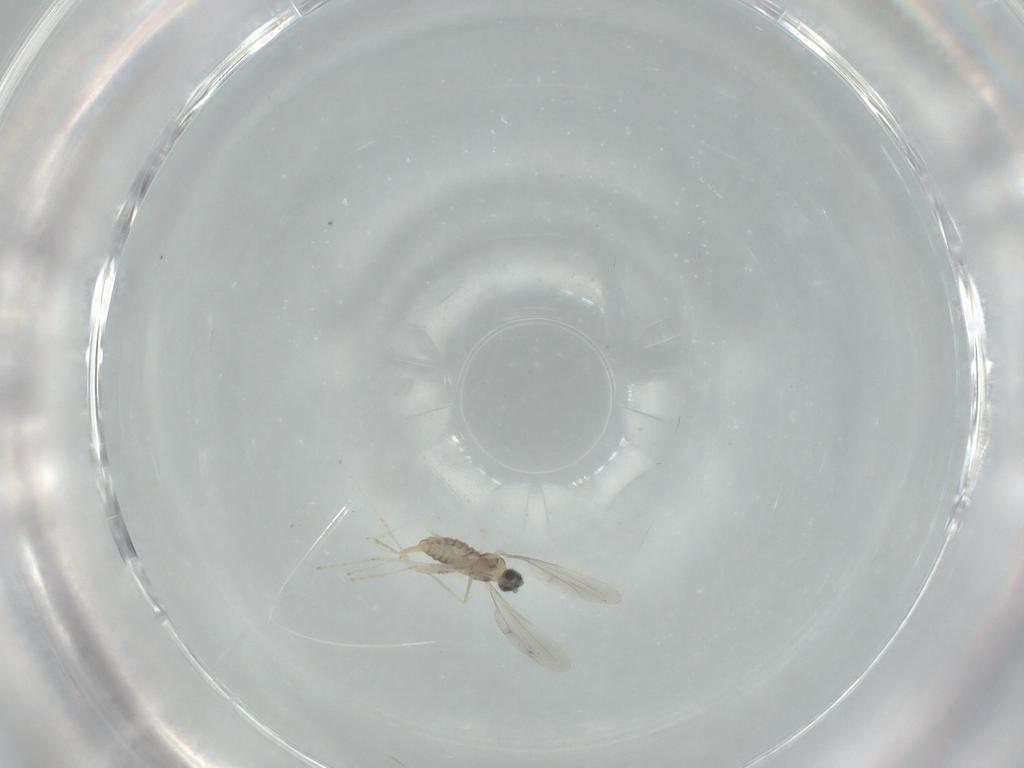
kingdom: Animalia
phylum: Arthropoda
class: Insecta
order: Diptera
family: Cecidomyiidae
